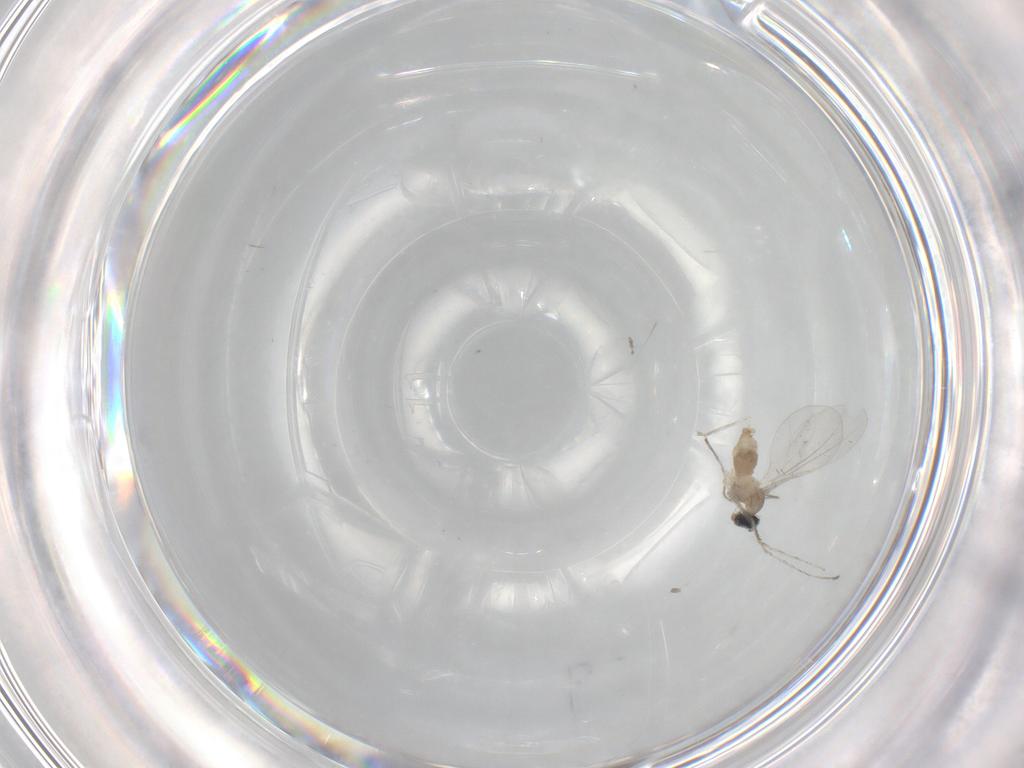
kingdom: Animalia
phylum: Arthropoda
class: Insecta
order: Diptera
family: Cecidomyiidae
